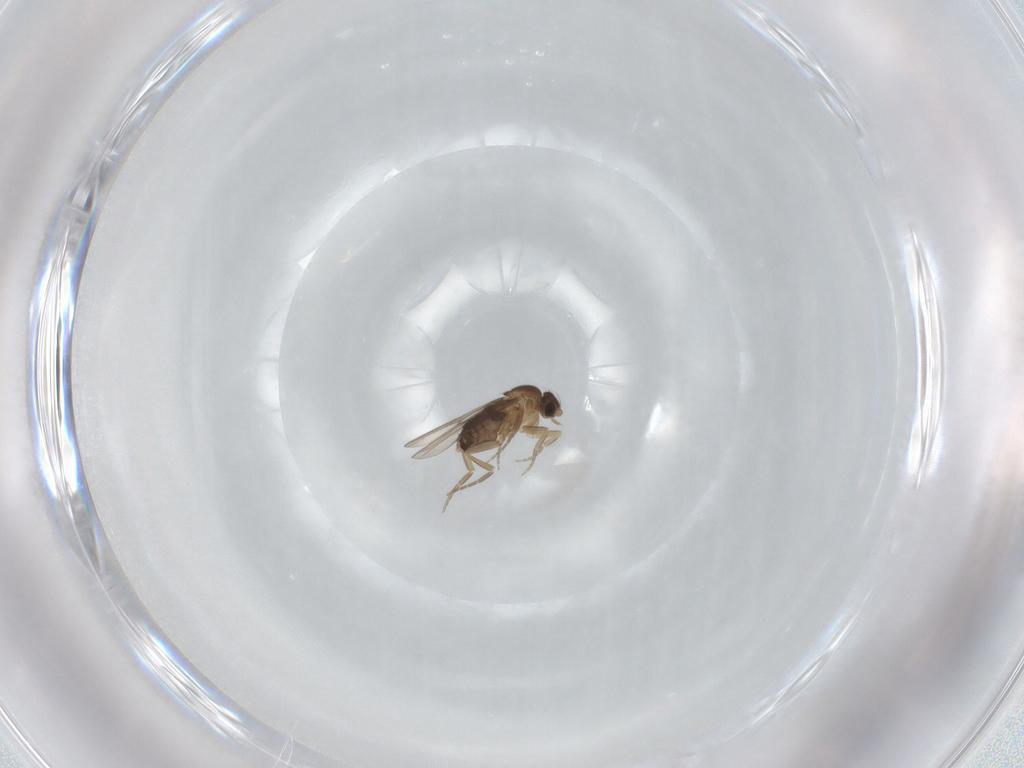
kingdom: Animalia
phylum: Arthropoda
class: Insecta
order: Diptera
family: Phoridae
